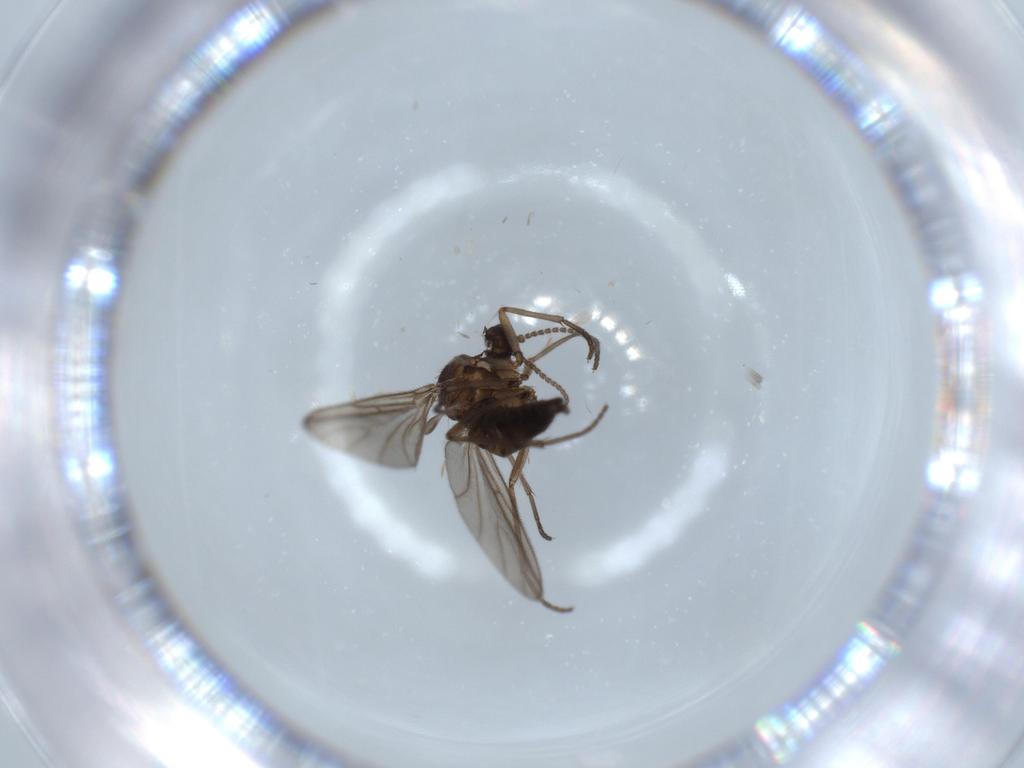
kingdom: Animalia
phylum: Arthropoda
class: Insecta
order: Diptera
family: Sciaridae
